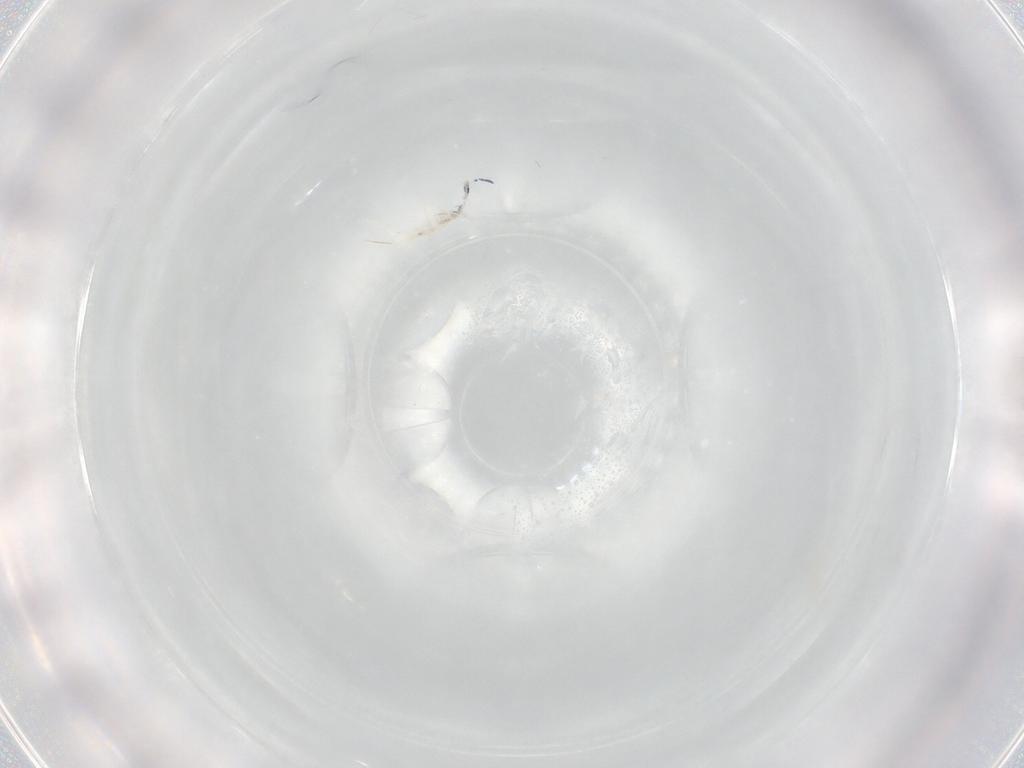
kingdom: Animalia
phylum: Arthropoda
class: Collembola
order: Entomobryomorpha
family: Entomobryidae
